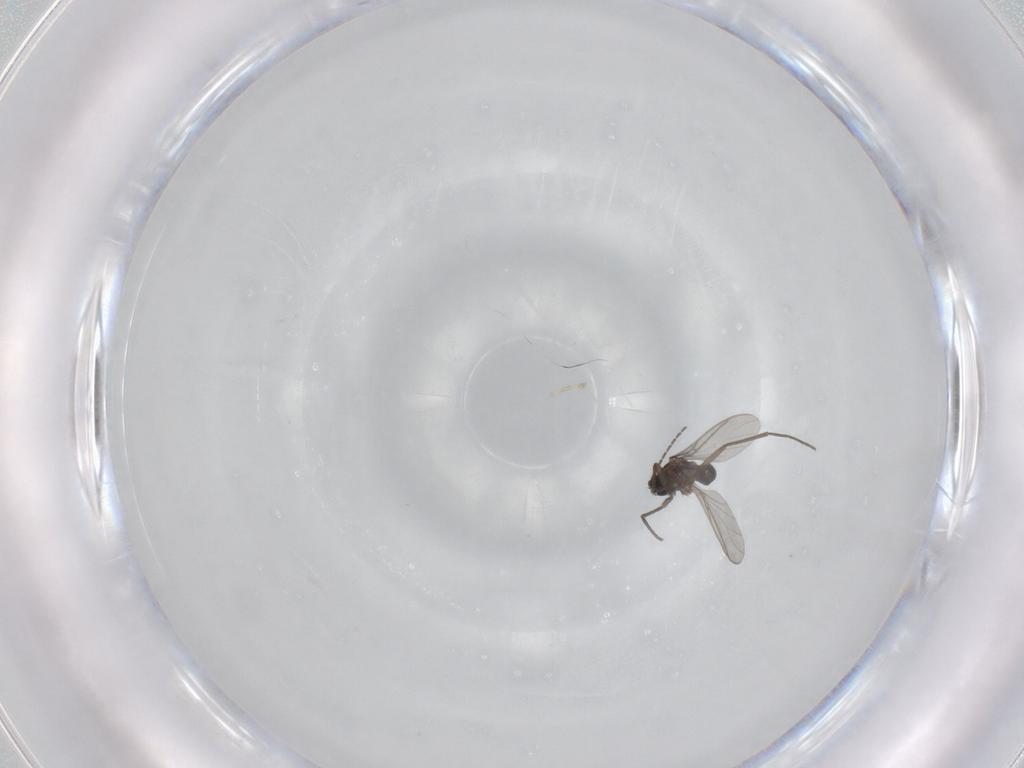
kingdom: Animalia
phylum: Arthropoda
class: Insecta
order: Diptera
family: Sciaridae
